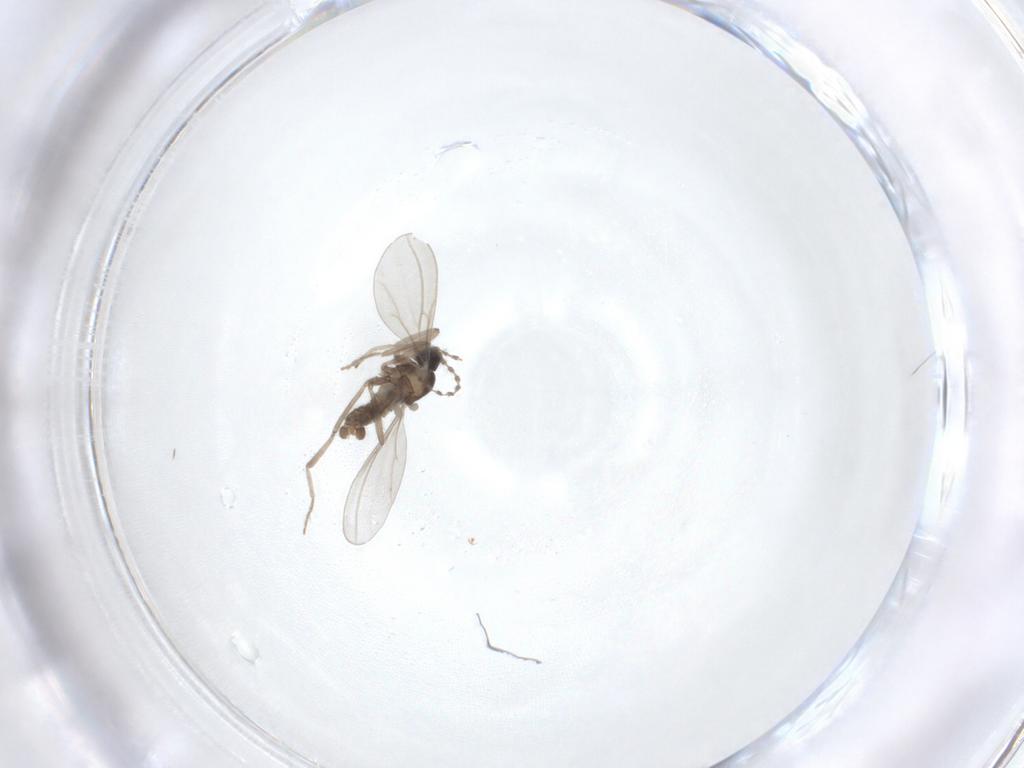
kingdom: Animalia
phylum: Arthropoda
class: Insecta
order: Diptera
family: Cecidomyiidae
